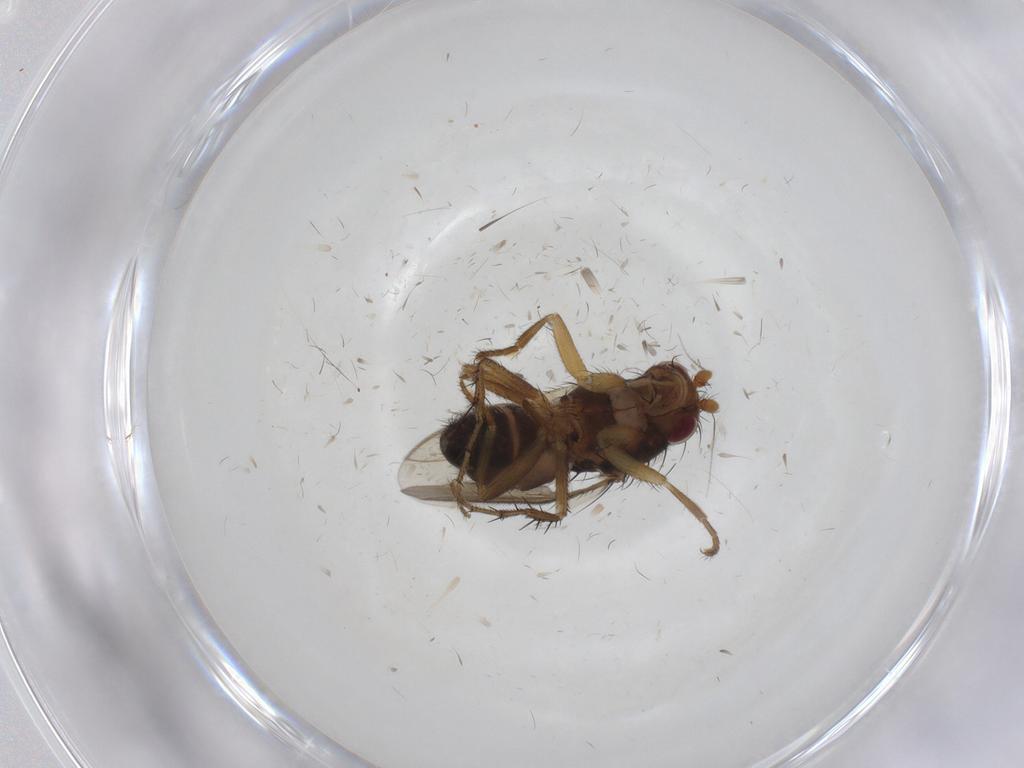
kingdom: Animalia
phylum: Arthropoda
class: Insecta
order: Diptera
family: Sphaeroceridae
